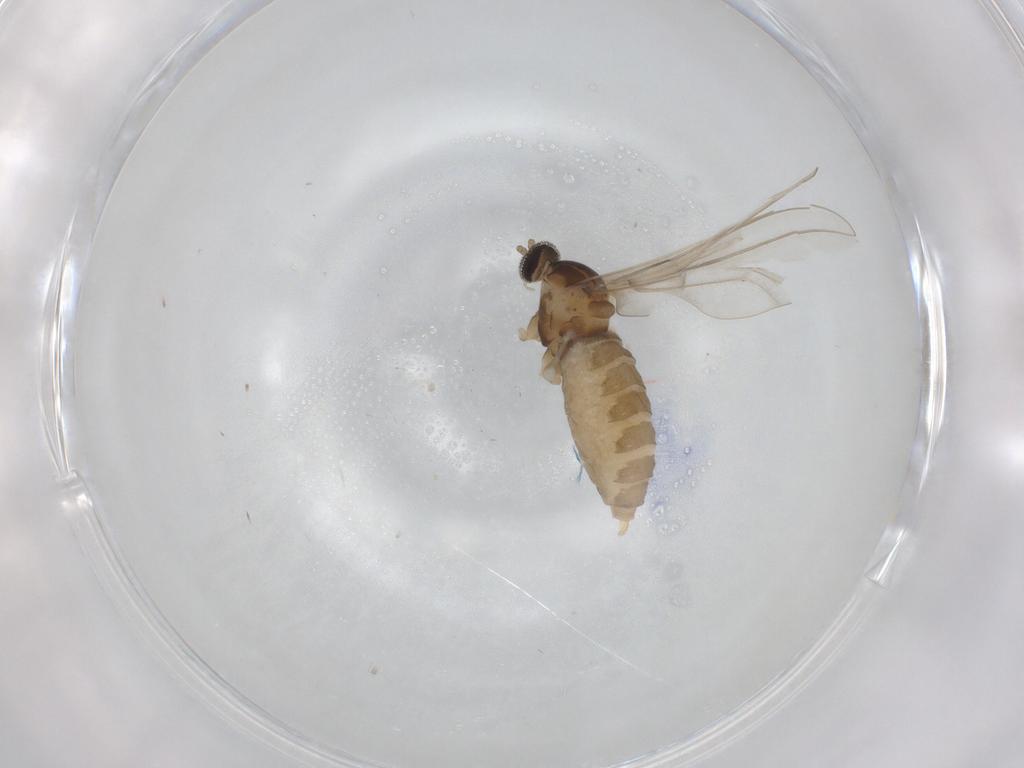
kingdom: Animalia
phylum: Arthropoda
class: Insecta
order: Diptera
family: Cecidomyiidae
